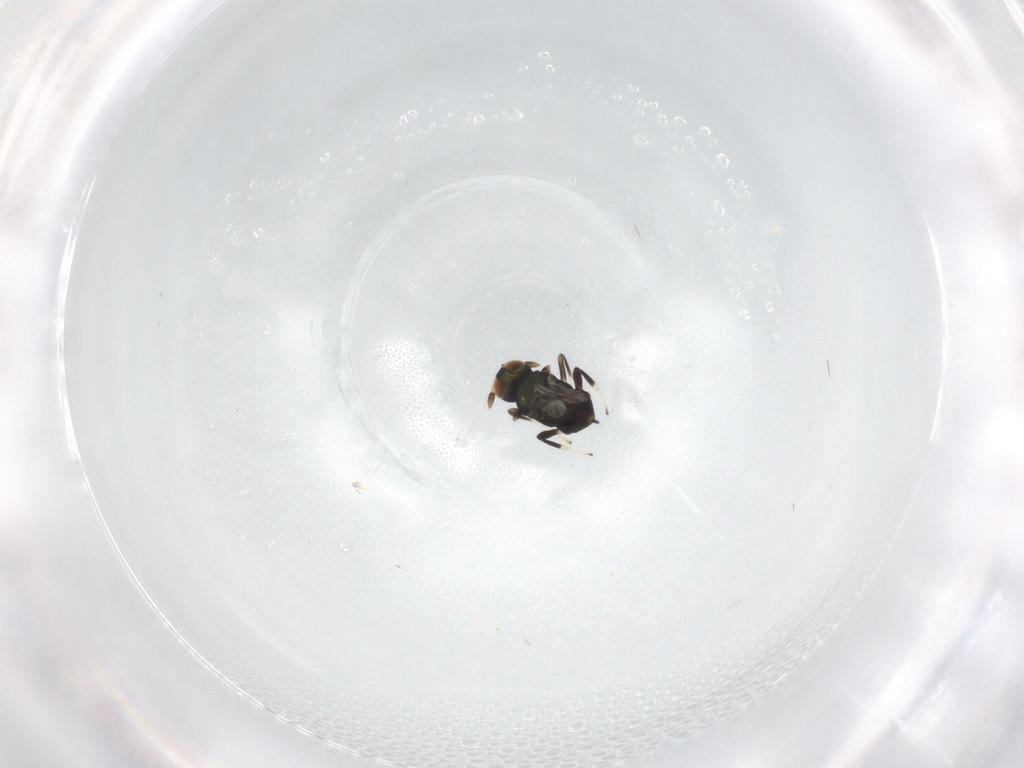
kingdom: Animalia
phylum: Arthropoda
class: Insecta
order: Hymenoptera
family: Encyrtidae
